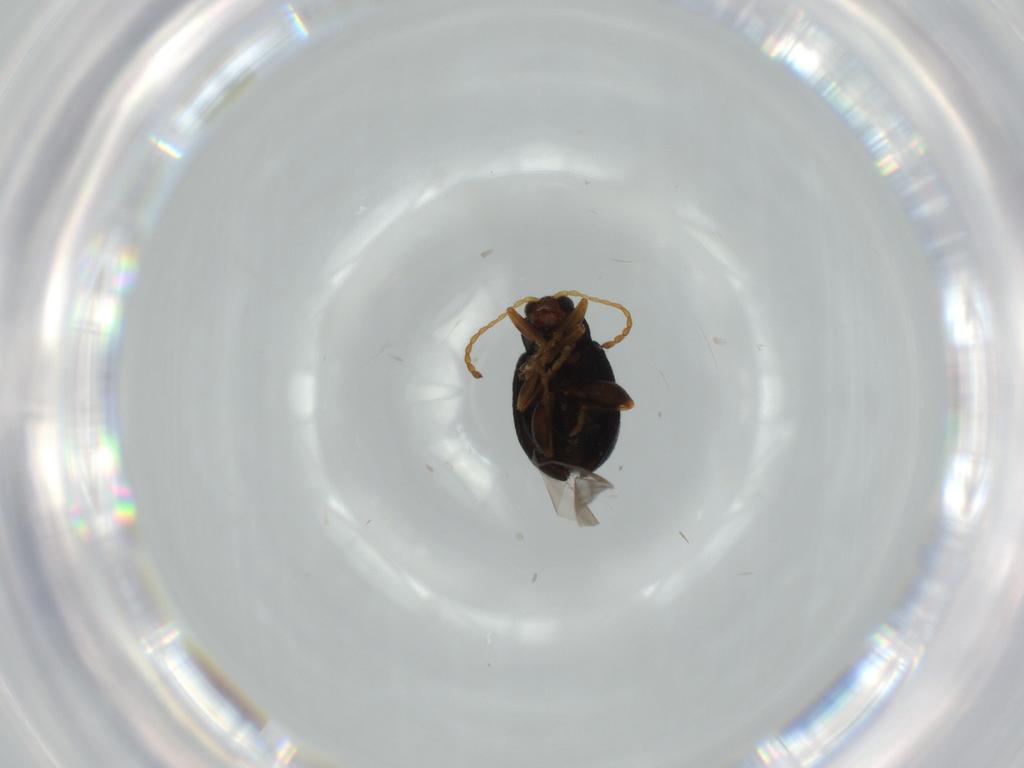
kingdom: Animalia
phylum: Arthropoda
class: Insecta
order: Coleoptera
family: Chrysomelidae
